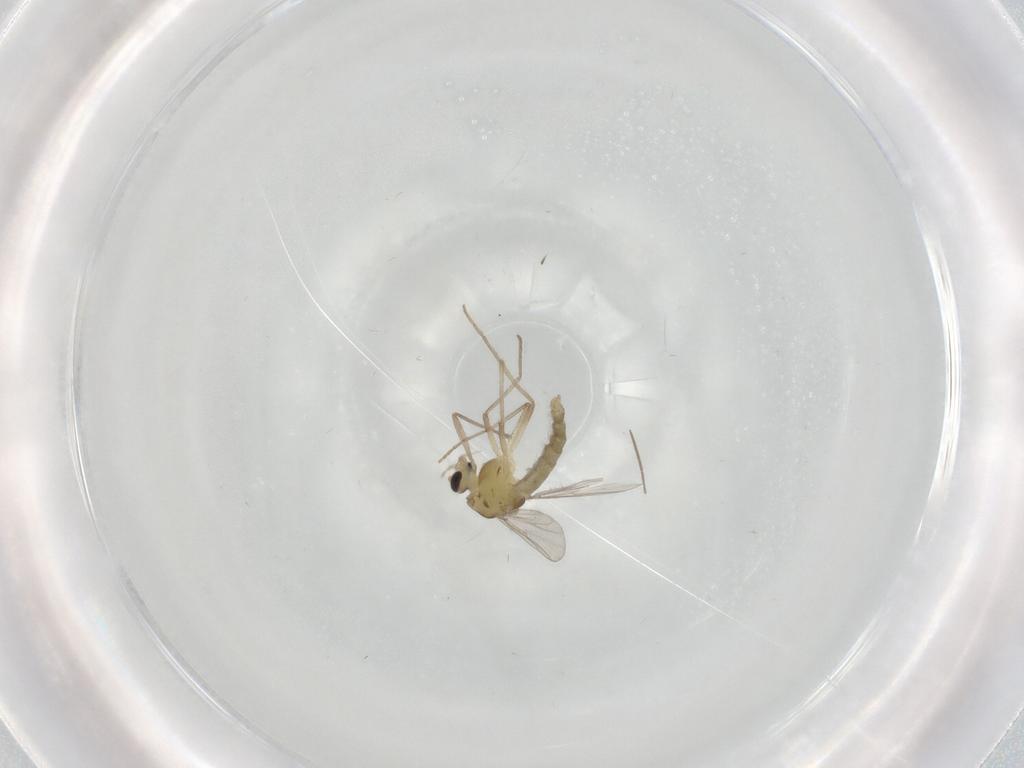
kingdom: Animalia
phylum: Arthropoda
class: Insecta
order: Diptera
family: Chironomidae
